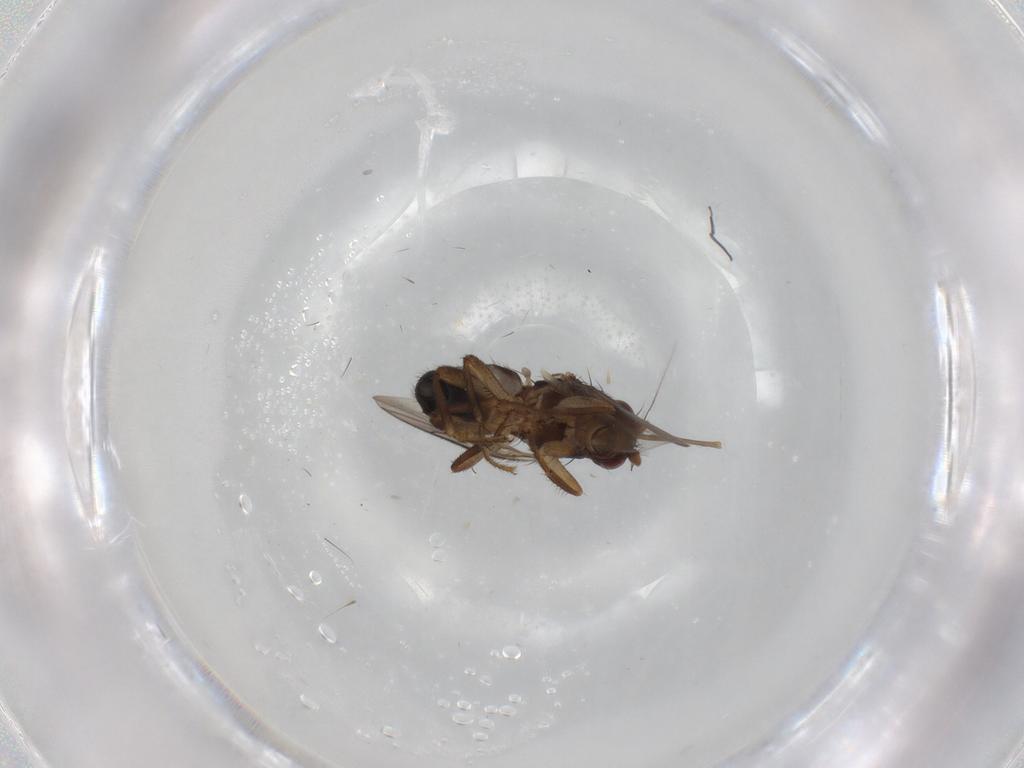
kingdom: Animalia
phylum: Arthropoda
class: Insecta
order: Diptera
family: Sphaeroceridae
